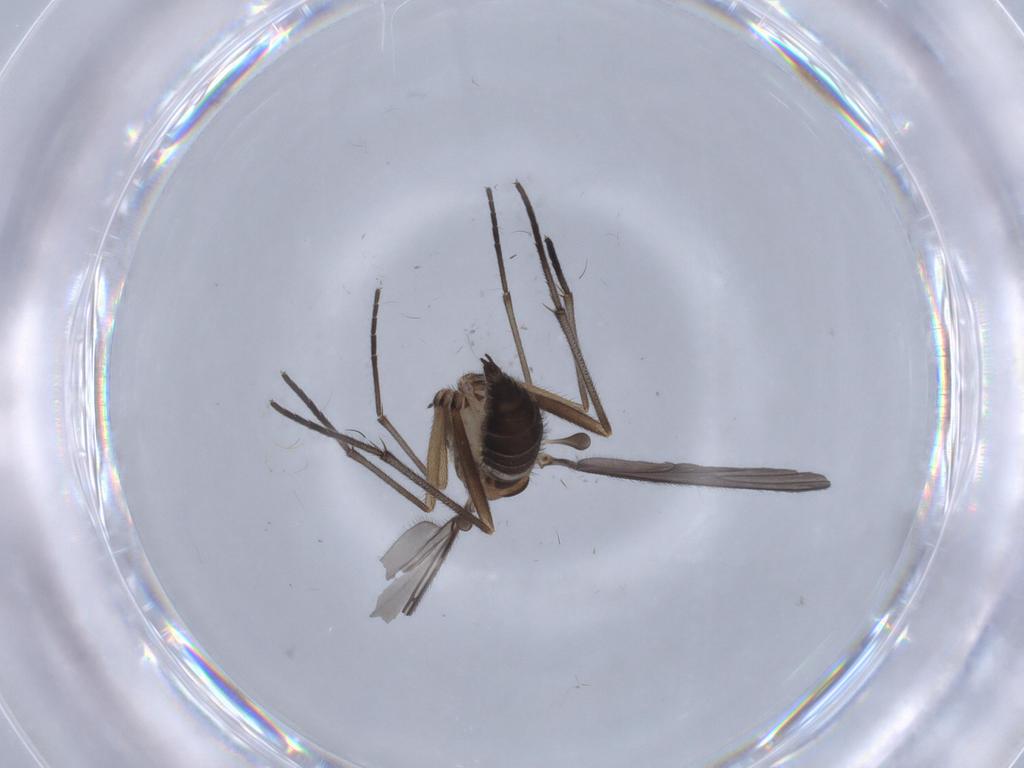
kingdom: Animalia
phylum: Arthropoda
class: Insecta
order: Diptera
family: Sciaridae
